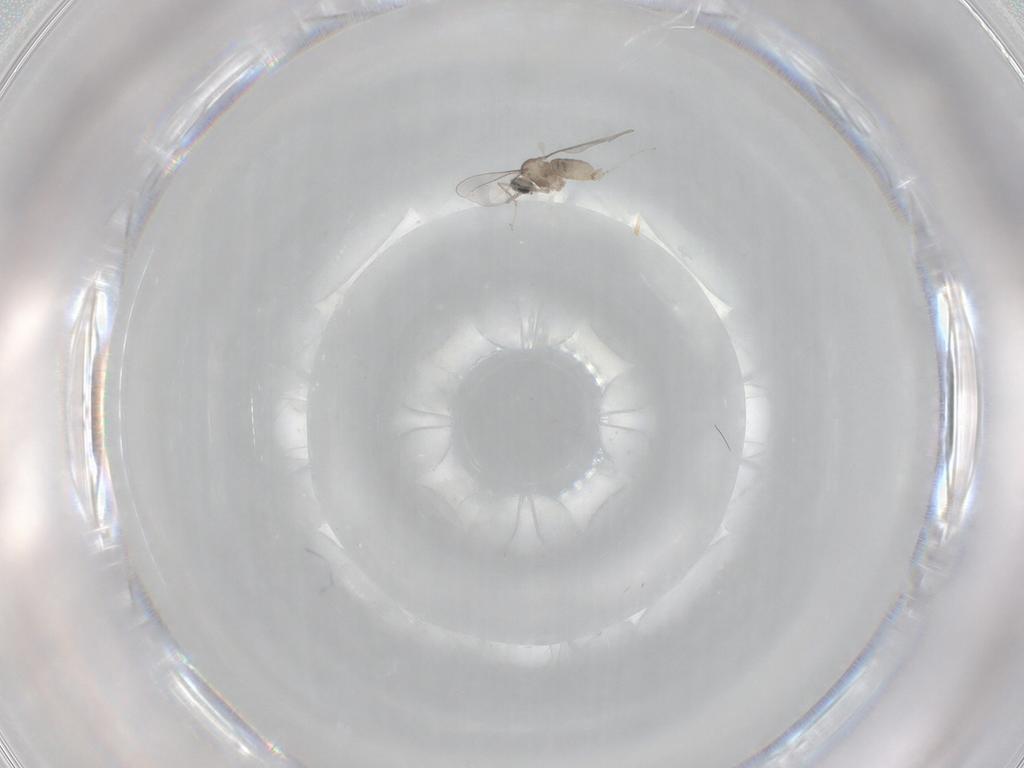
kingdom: Animalia
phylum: Arthropoda
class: Insecta
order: Diptera
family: Cecidomyiidae
